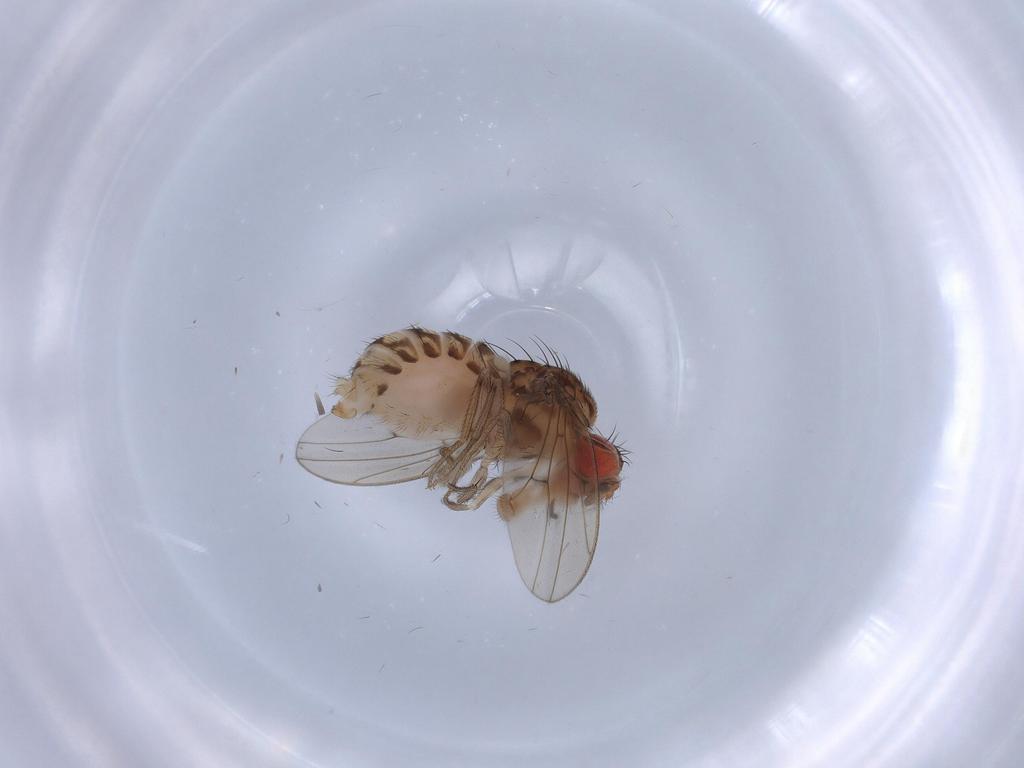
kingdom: Animalia
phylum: Arthropoda
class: Insecta
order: Diptera
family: Drosophilidae
